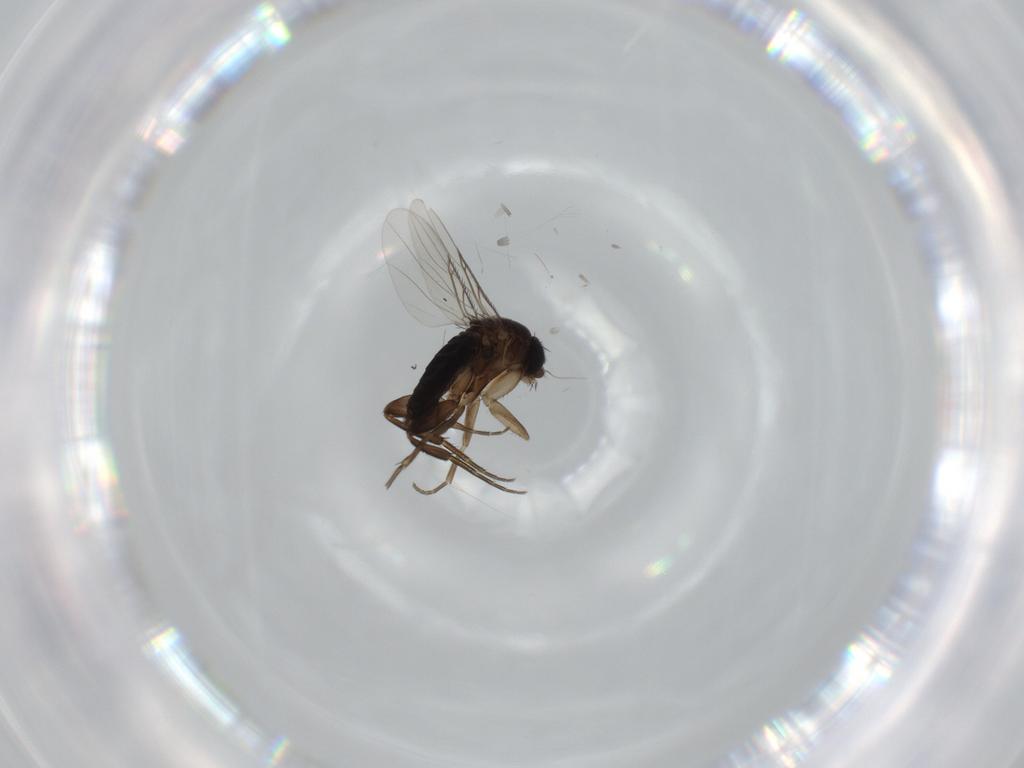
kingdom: Animalia
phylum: Arthropoda
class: Insecta
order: Diptera
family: Phoridae
